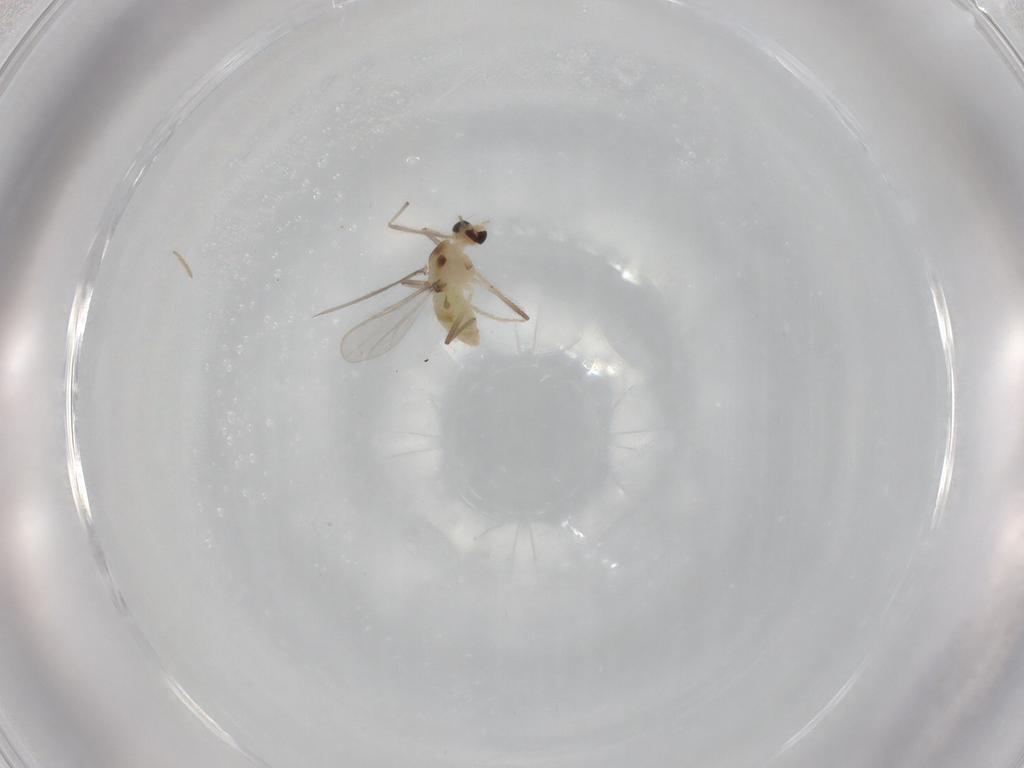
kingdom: Animalia
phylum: Arthropoda
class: Insecta
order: Diptera
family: Chironomidae
